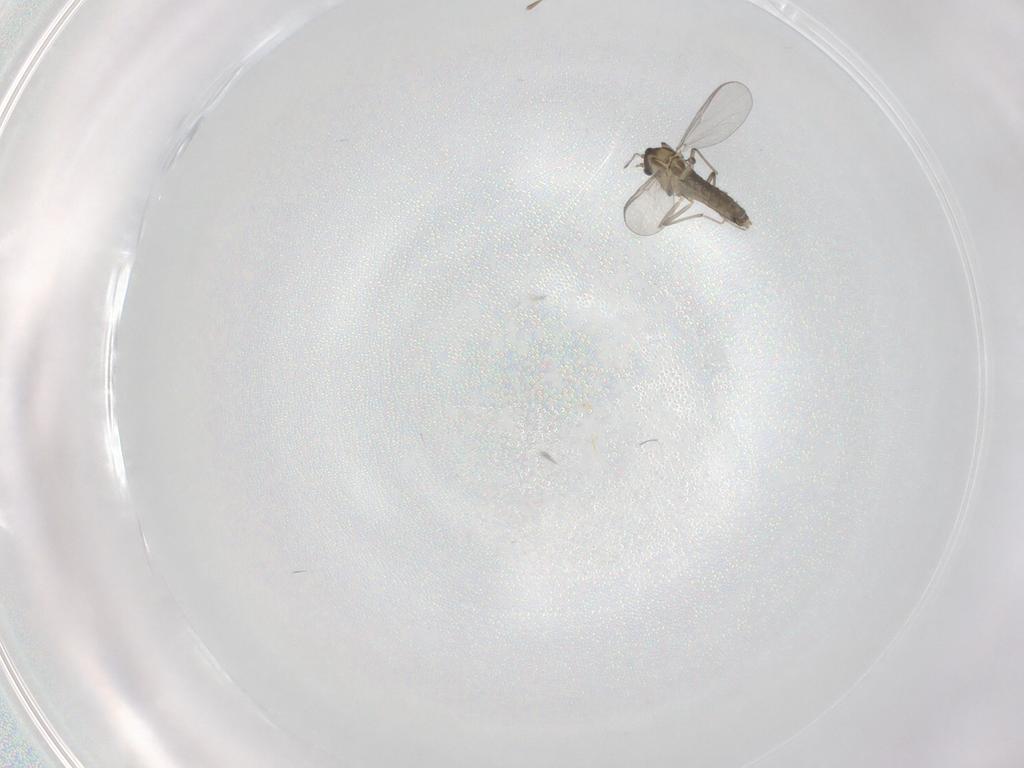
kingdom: Animalia
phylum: Arthropoda
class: Insecta
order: Diptera
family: Chironomidae
